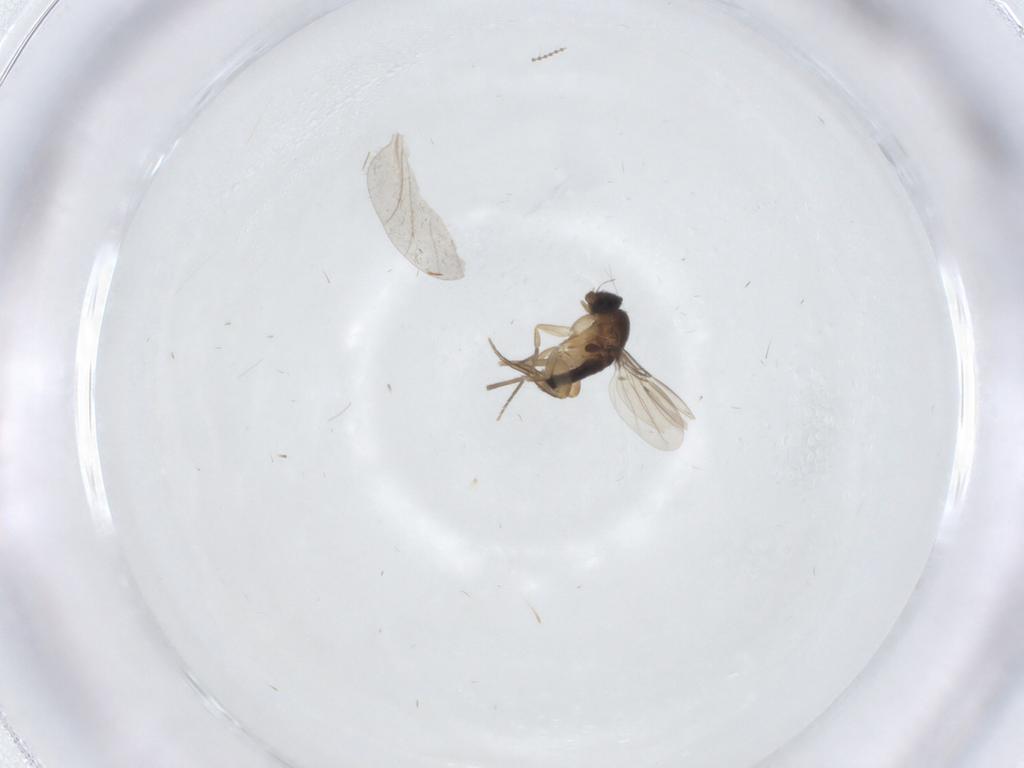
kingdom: Animalia
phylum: Arthropoda
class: Insecta
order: Diptera
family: Phoridae
